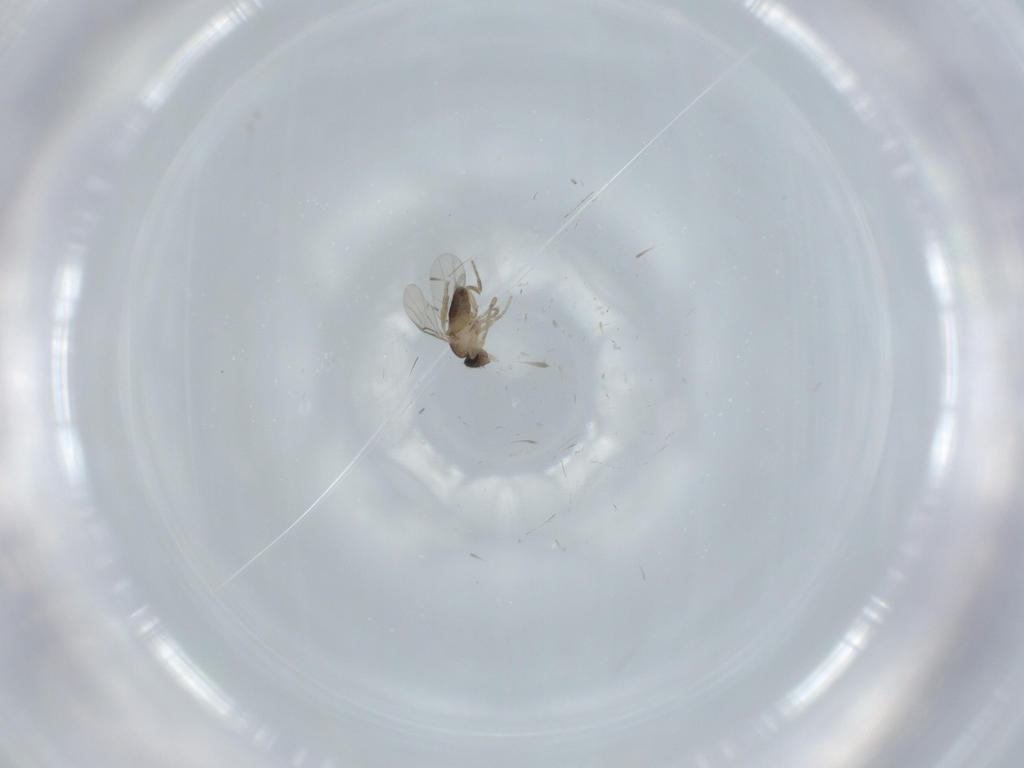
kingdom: Animalia
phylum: Arthropoda
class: Insecta
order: Diptera
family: Phoridae
